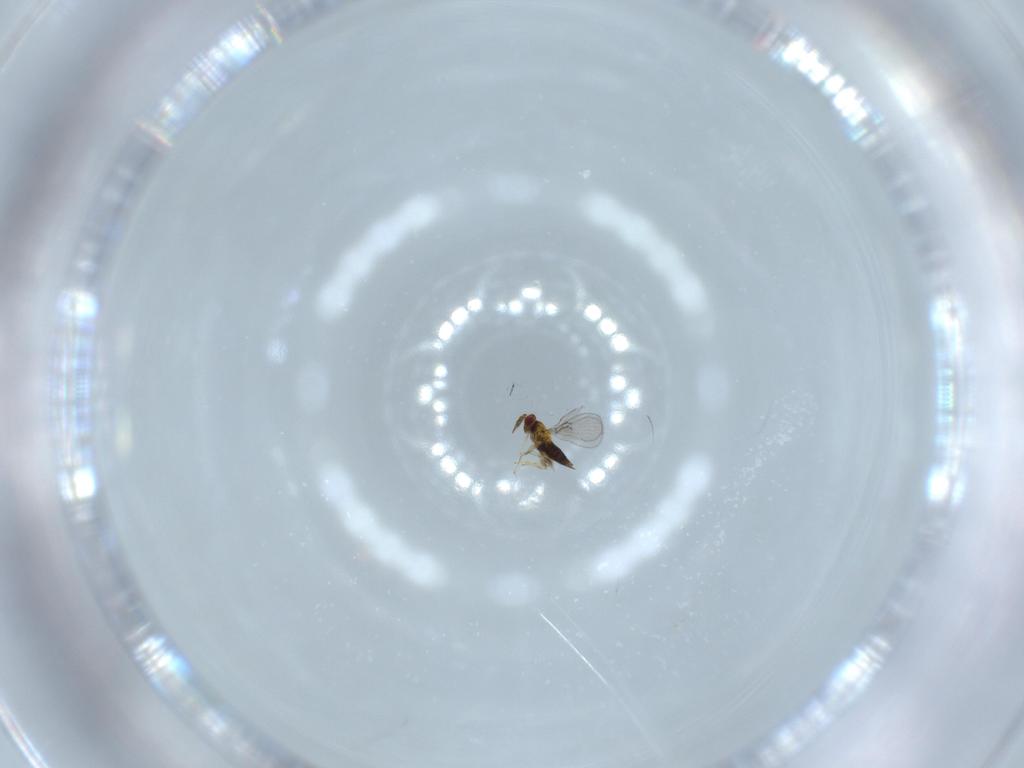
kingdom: Animalia
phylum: Arthropoda
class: Insecta
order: Hymenoptera
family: Trichogrammatidae
